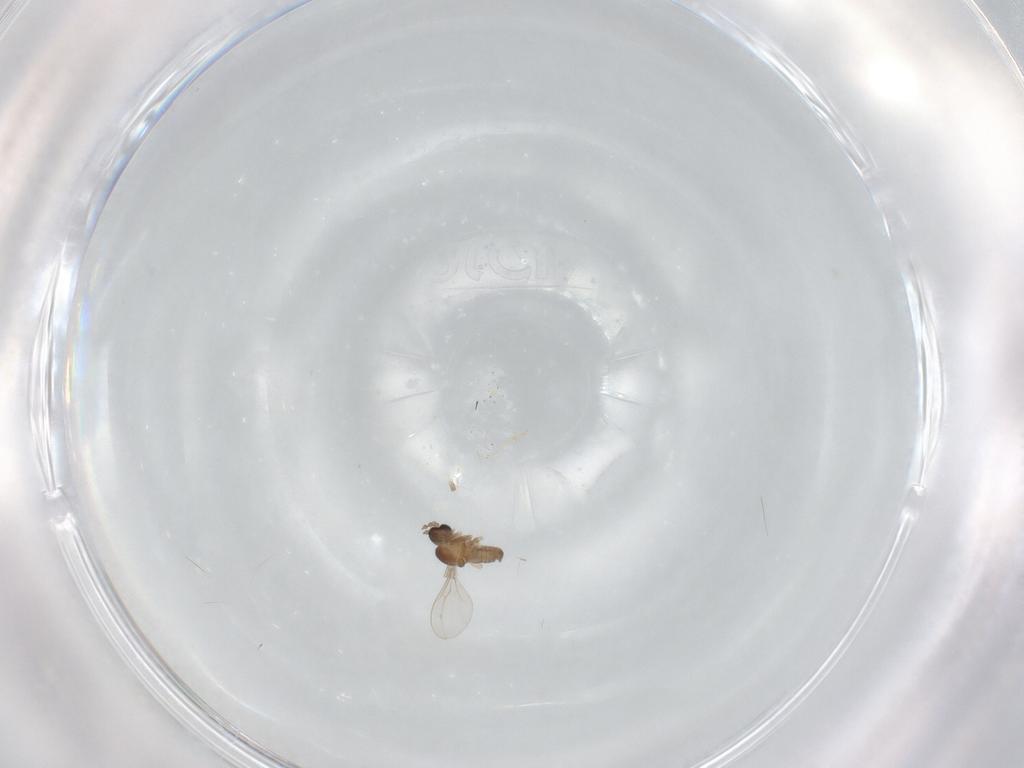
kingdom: Animalia
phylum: Arthropoda
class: Insecta
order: Diptera
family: Cecidomyiidae
